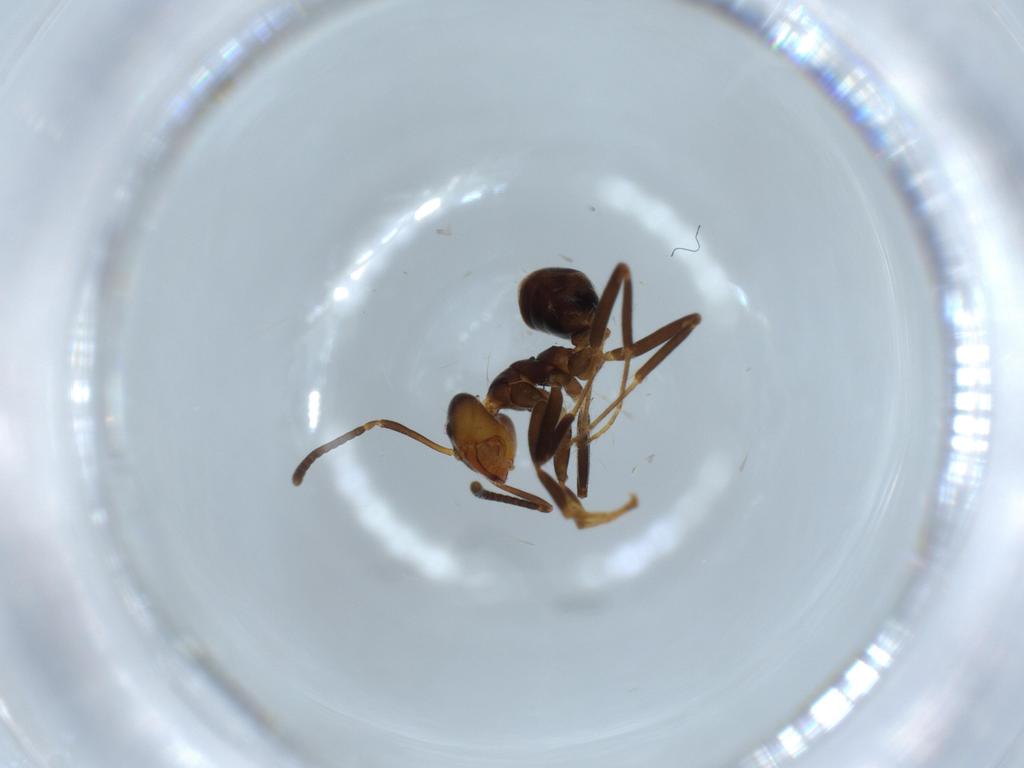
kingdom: Animalia
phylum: Arthropoda
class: Insecta
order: Hymenoptera
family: Formicidae
